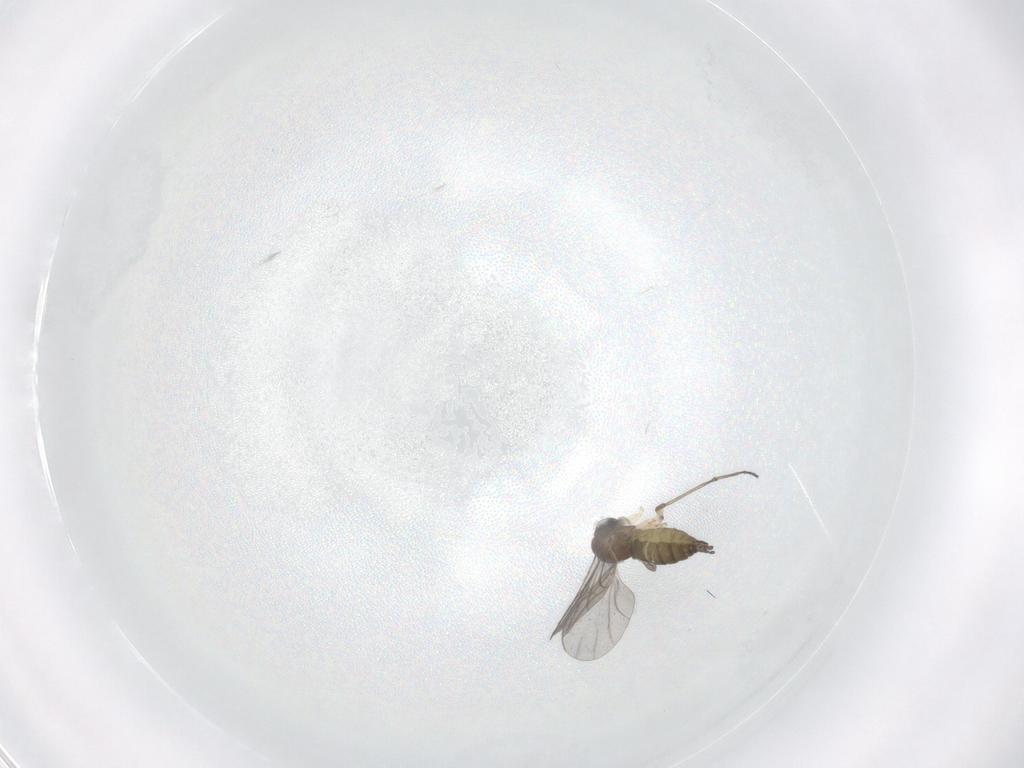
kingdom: Animalia
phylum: Arthropoda
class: Insecta
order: Diptera
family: Sciaridae
